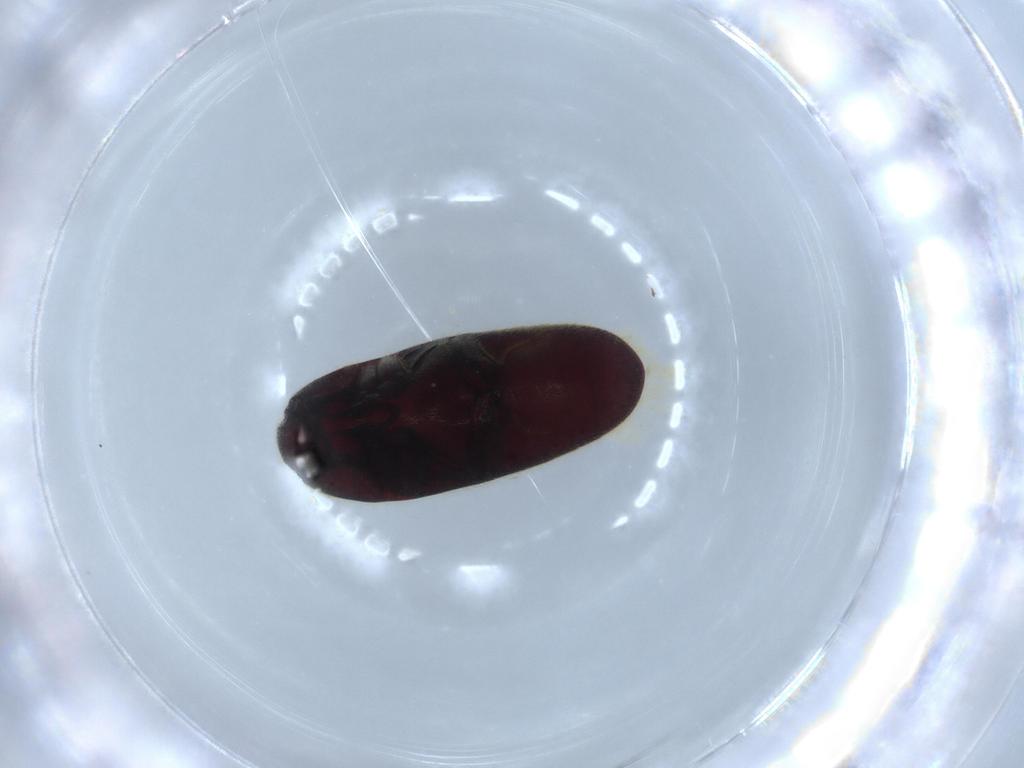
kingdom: Animalia
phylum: Arthropoda
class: Insecta
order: Coleoptera
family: Throscidae
